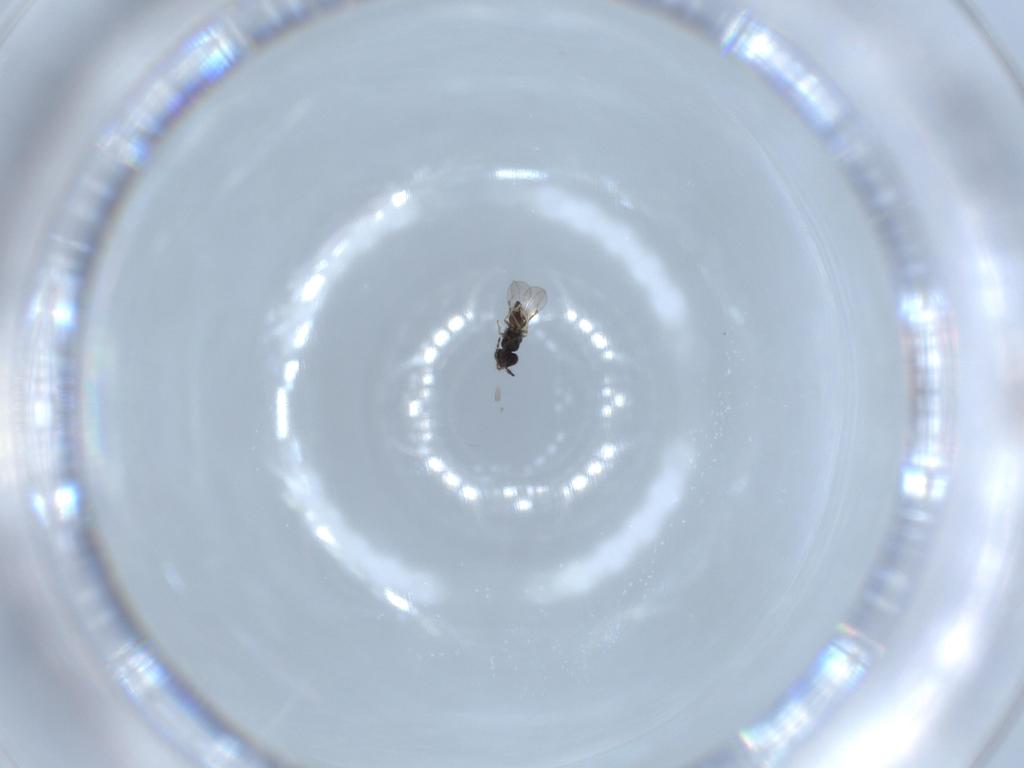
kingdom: Animalia
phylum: Arthropoda
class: Insecta
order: Hymenoptera
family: Ceraphronidae
